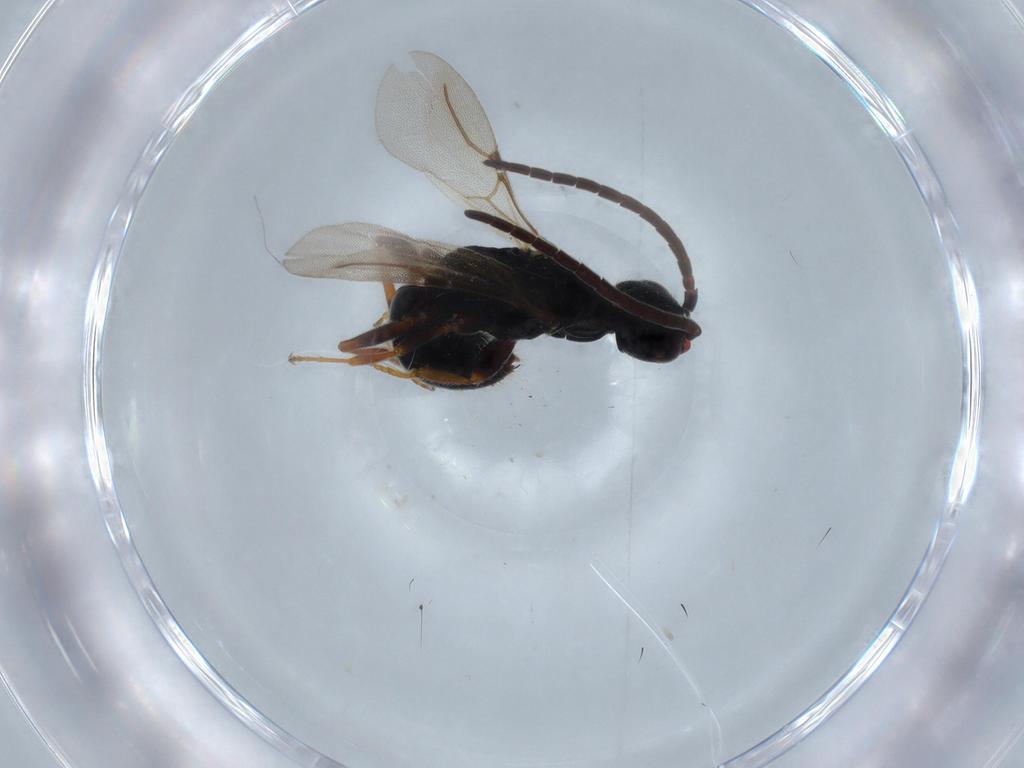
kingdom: Animalia
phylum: Arthropoda
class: Insecta
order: Hymenoptera
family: Bethylidae
